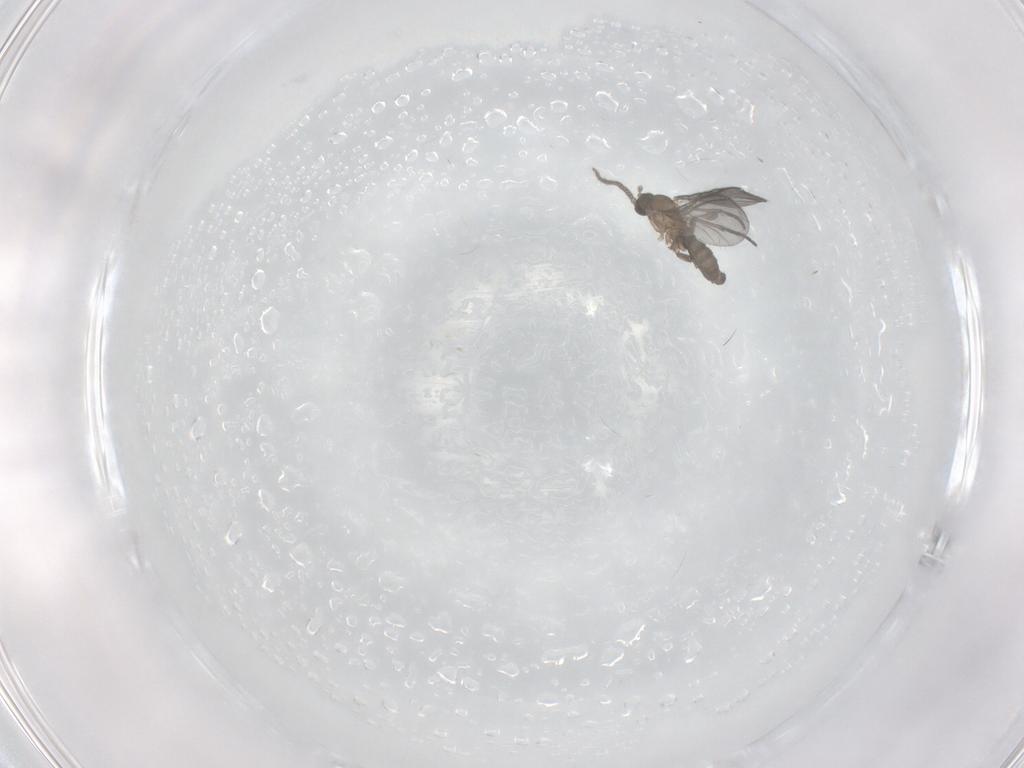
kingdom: Animalia
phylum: Arthropoda
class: Insecta
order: Diptera
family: Sciaridae
